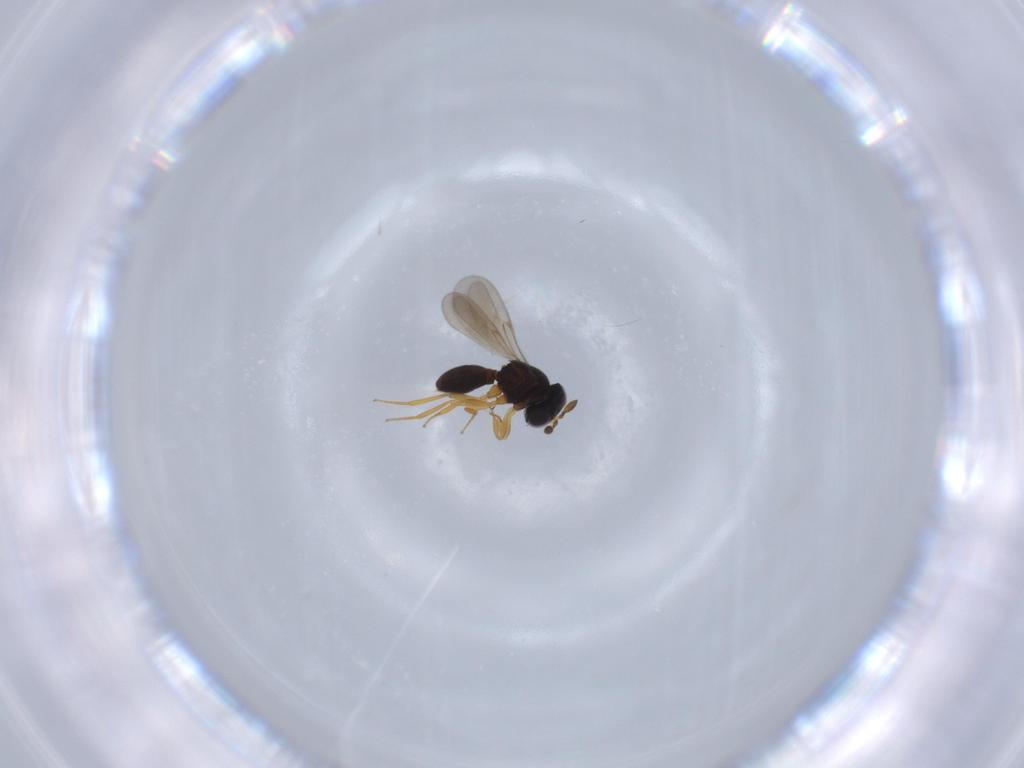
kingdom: Animalia
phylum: Arthropoda
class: Insecta
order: Hymenoptera
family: Scelionidae
